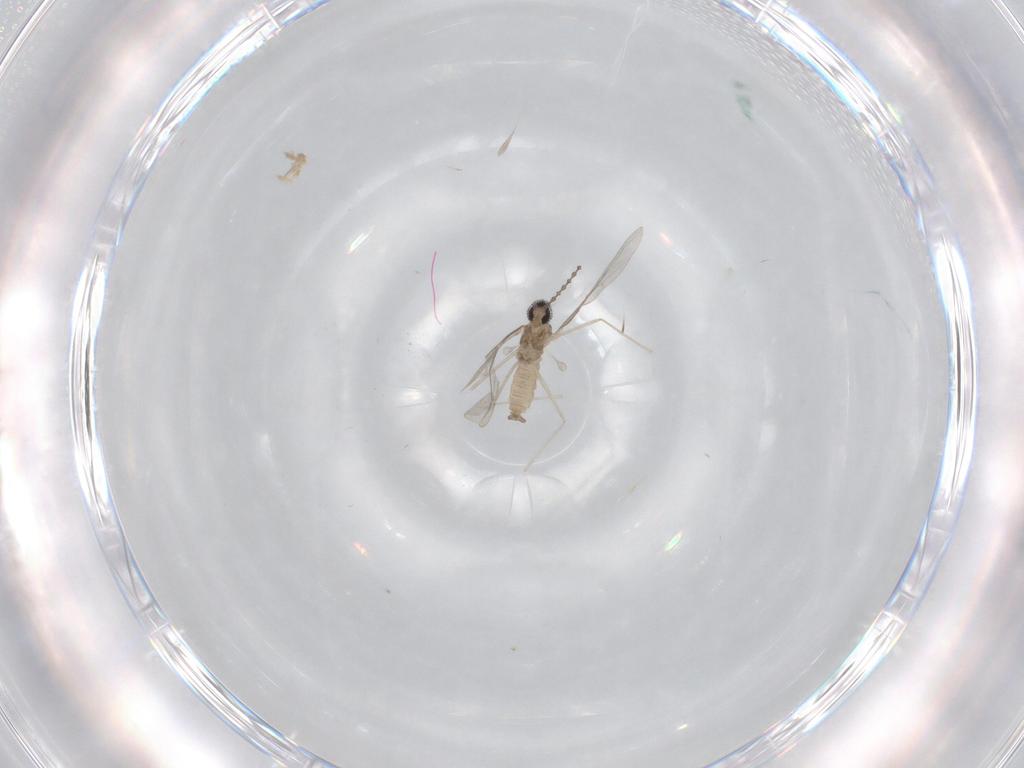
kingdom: Animalia
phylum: Arthropoda
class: Insecta
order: Diptera
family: Cecidomyiidae
